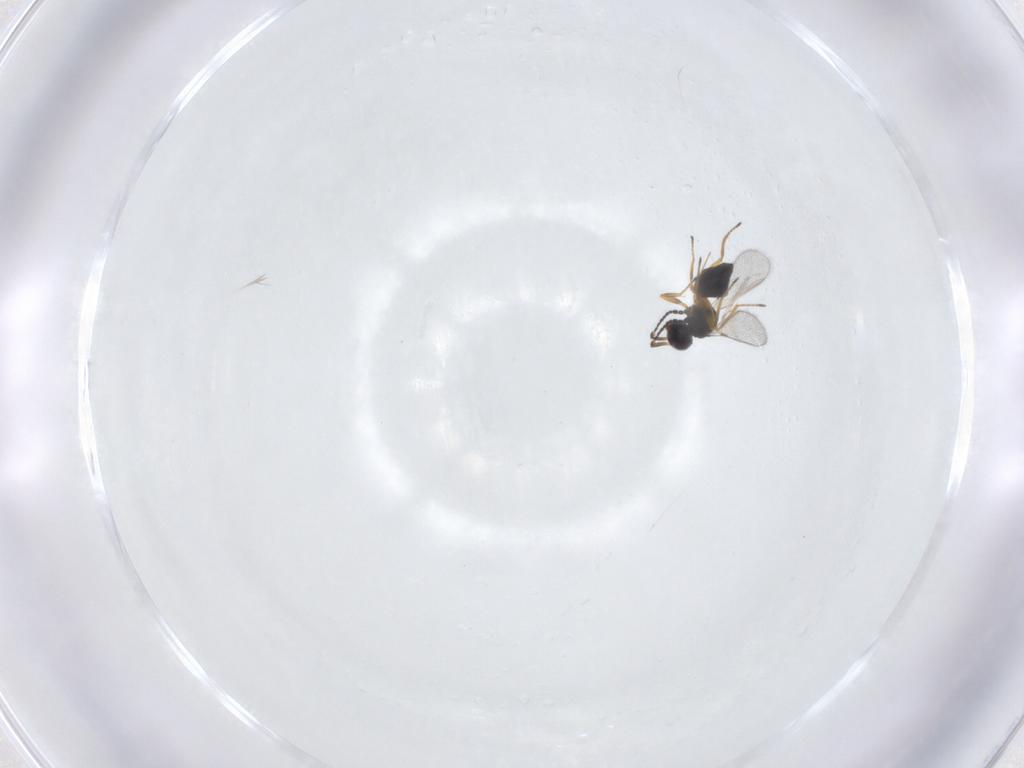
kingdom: Animalia
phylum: Arthropoda
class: Insecta
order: Hymenoptera
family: Mymaridae
